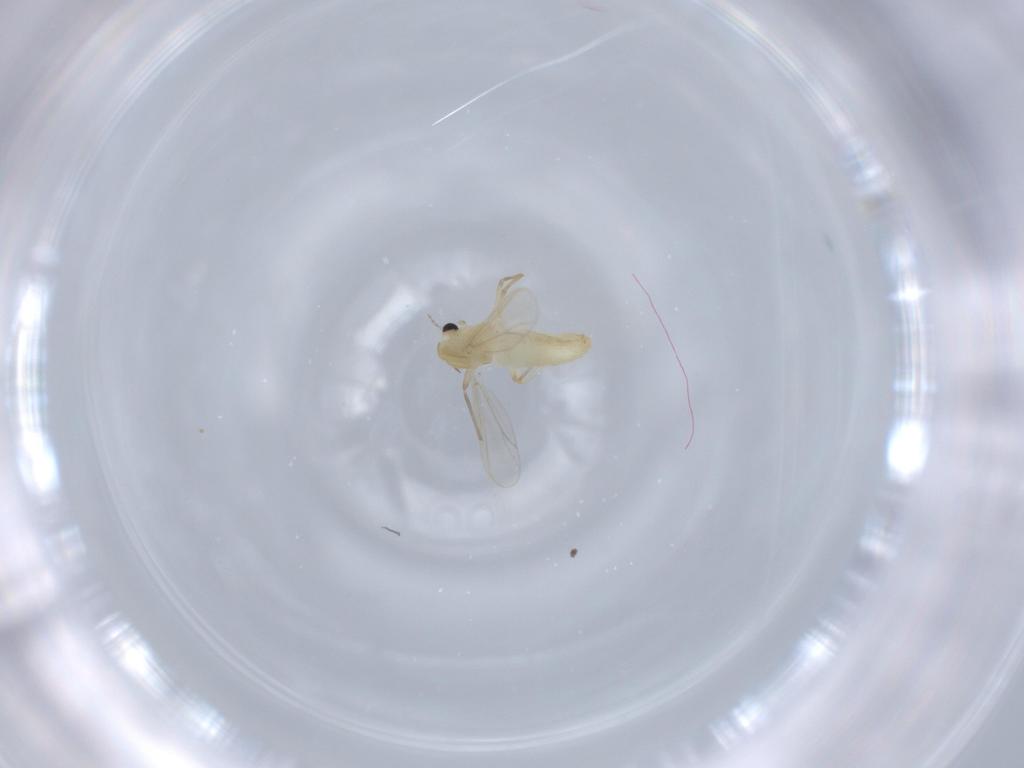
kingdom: Animalia
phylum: Arthropoda
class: Insecta
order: Diptera
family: Chironomidae
